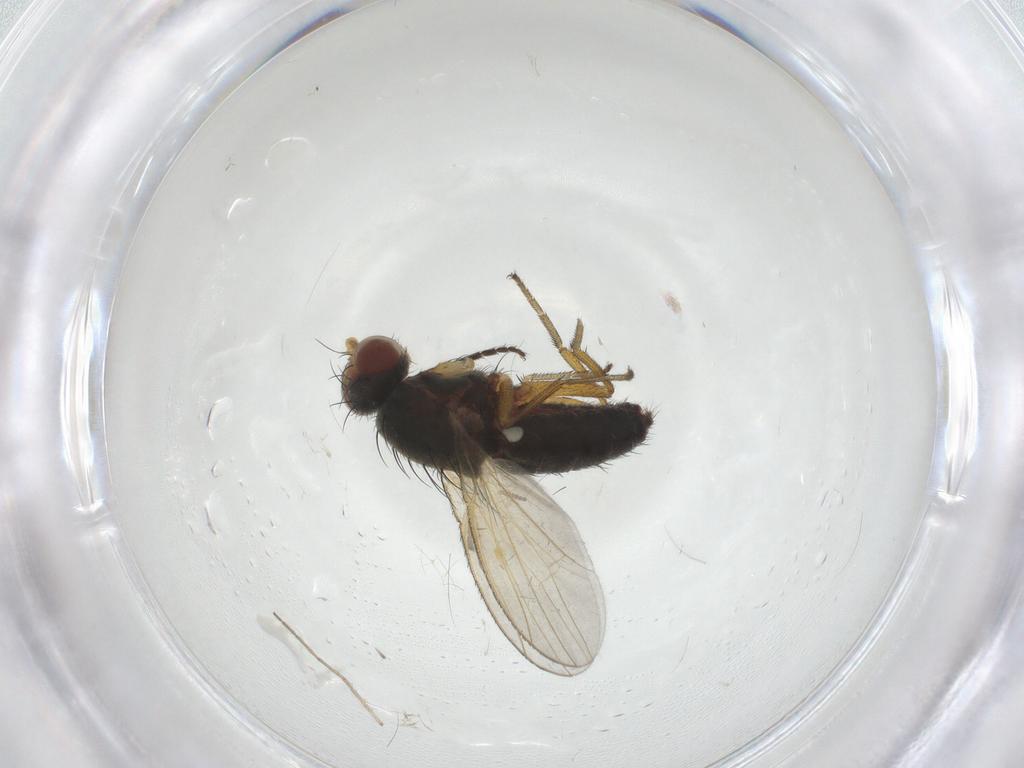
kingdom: Animalia
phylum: Arthropoda
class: Insecta
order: Diptera
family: Heleomyzidae
